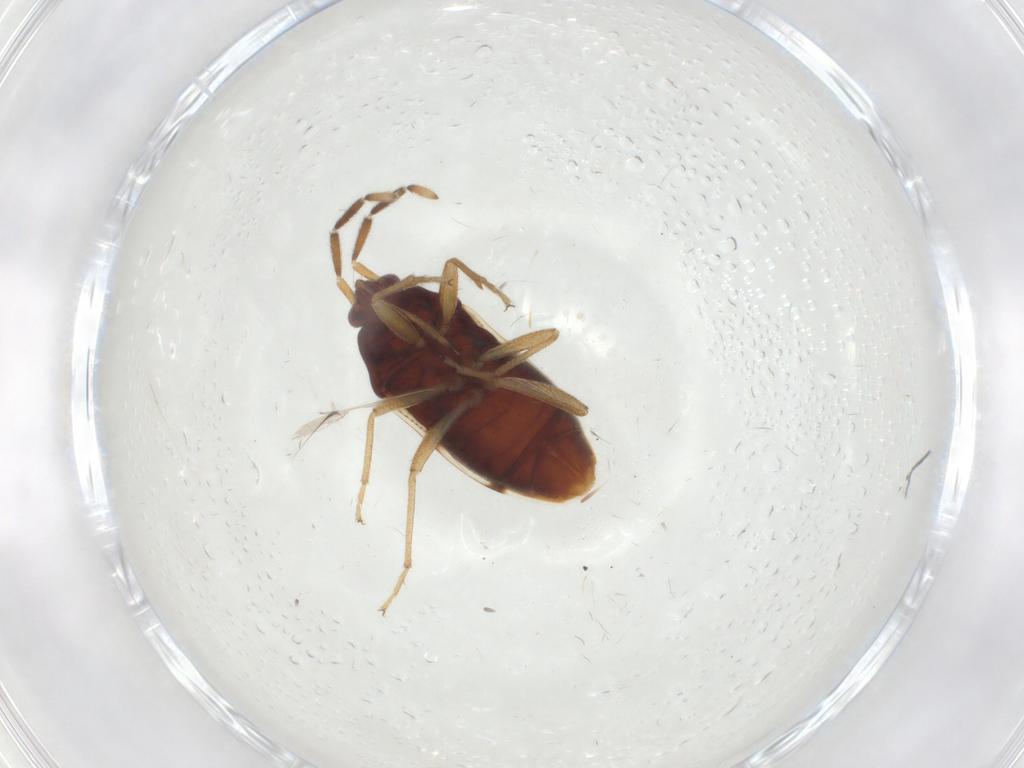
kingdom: Animalia
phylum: Arthropoda
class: Insecta
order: Hemiptera
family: Rhyparochromidae
